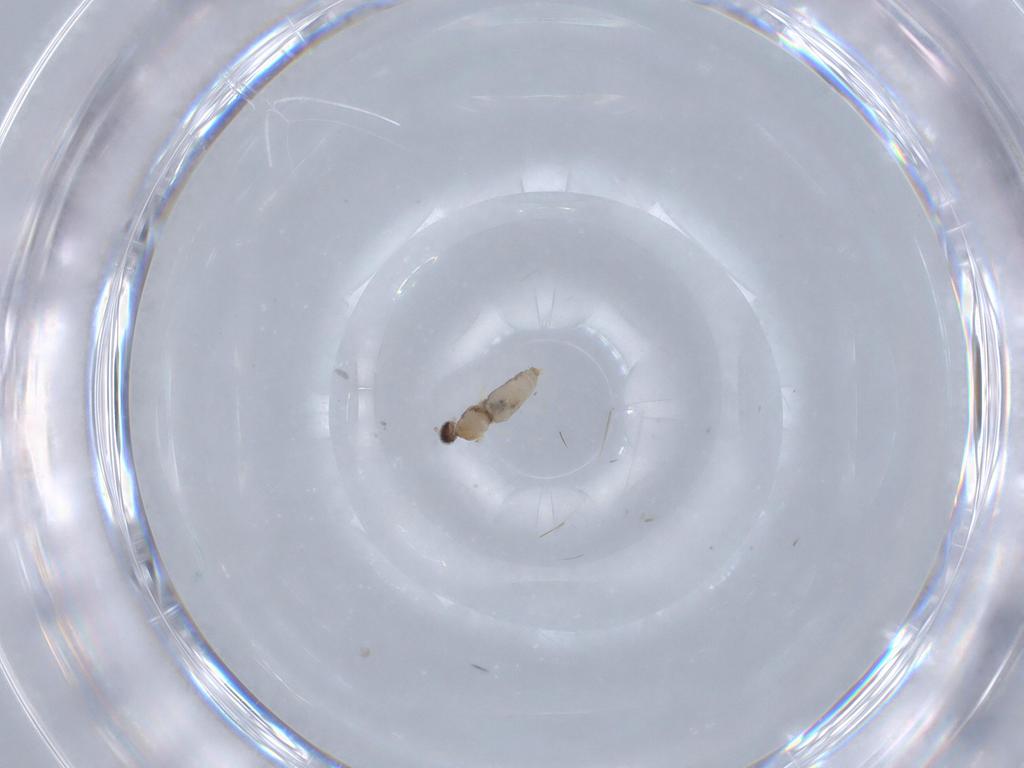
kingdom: Animalia
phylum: Arthropoda
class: Insecta
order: Diptera
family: Cecidomyiidae
